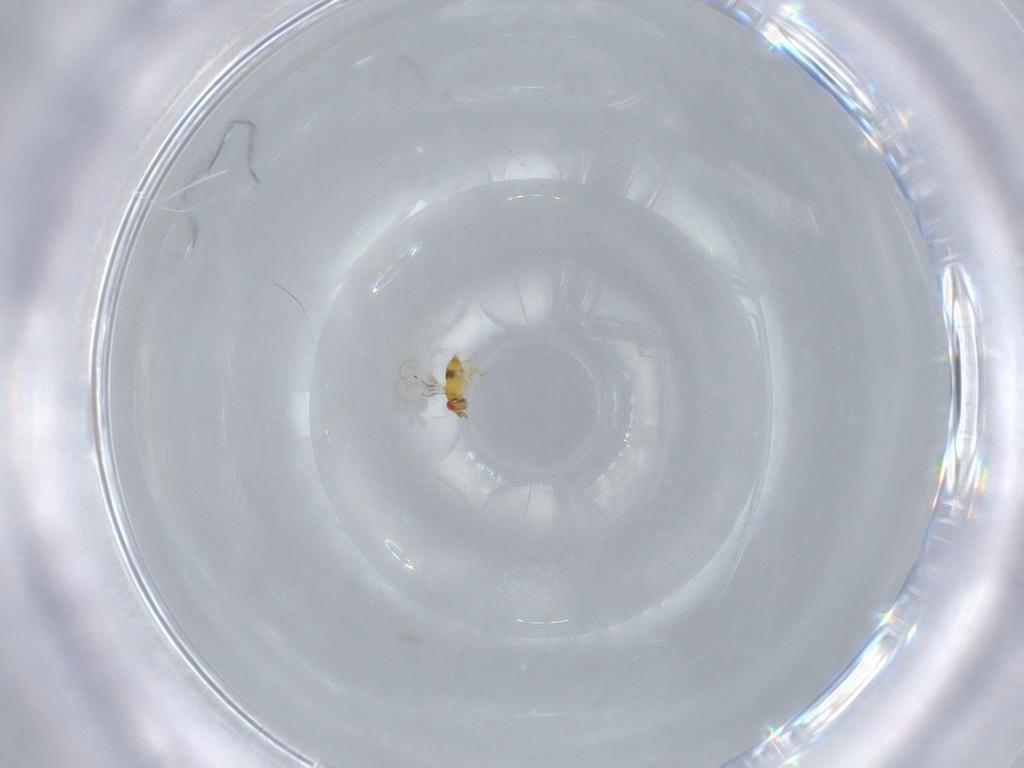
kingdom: Animalia
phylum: Arthropoda
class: Insecta
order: Hymenoptera
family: Trichogrammatidae
